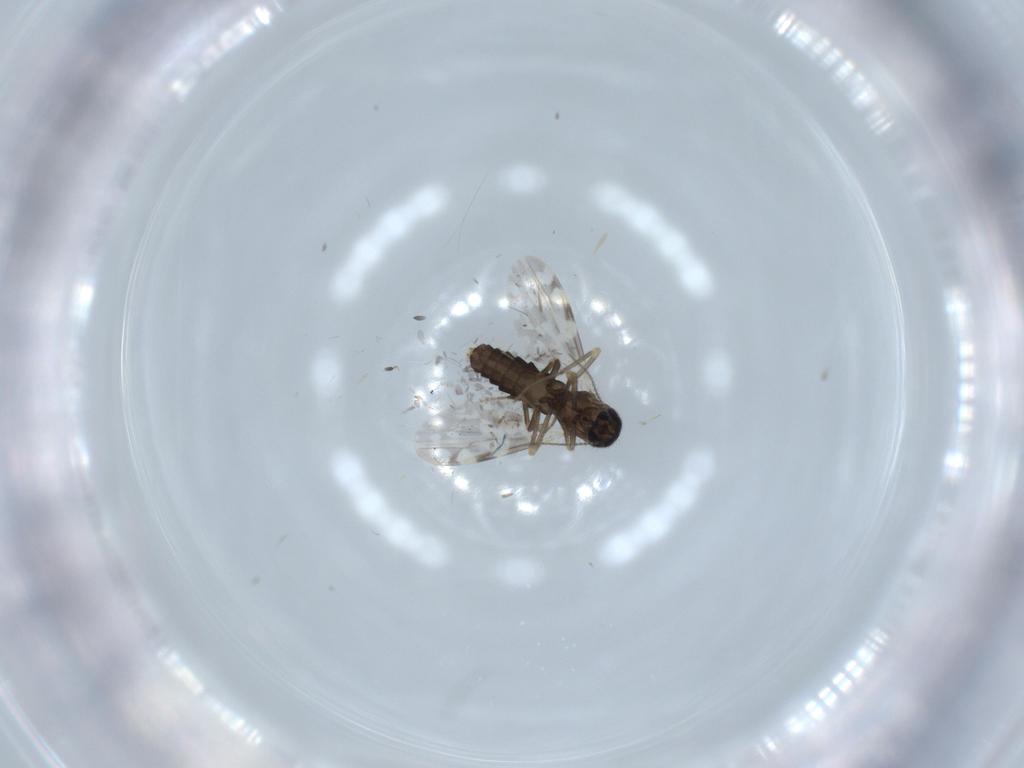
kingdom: Animalia
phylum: Arthropoda
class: Insecta
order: Diptera
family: Ceratopogonidae
